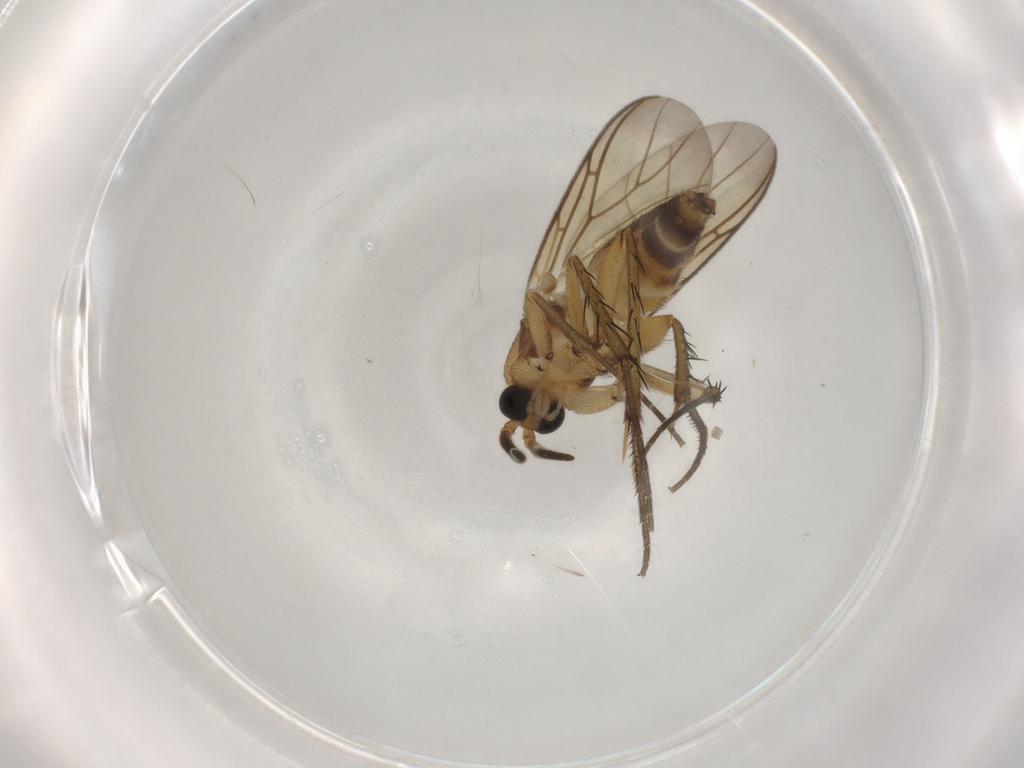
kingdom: Animalia
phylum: Arthropoda
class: Insecta
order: Diptera
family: Mycetophilidae
